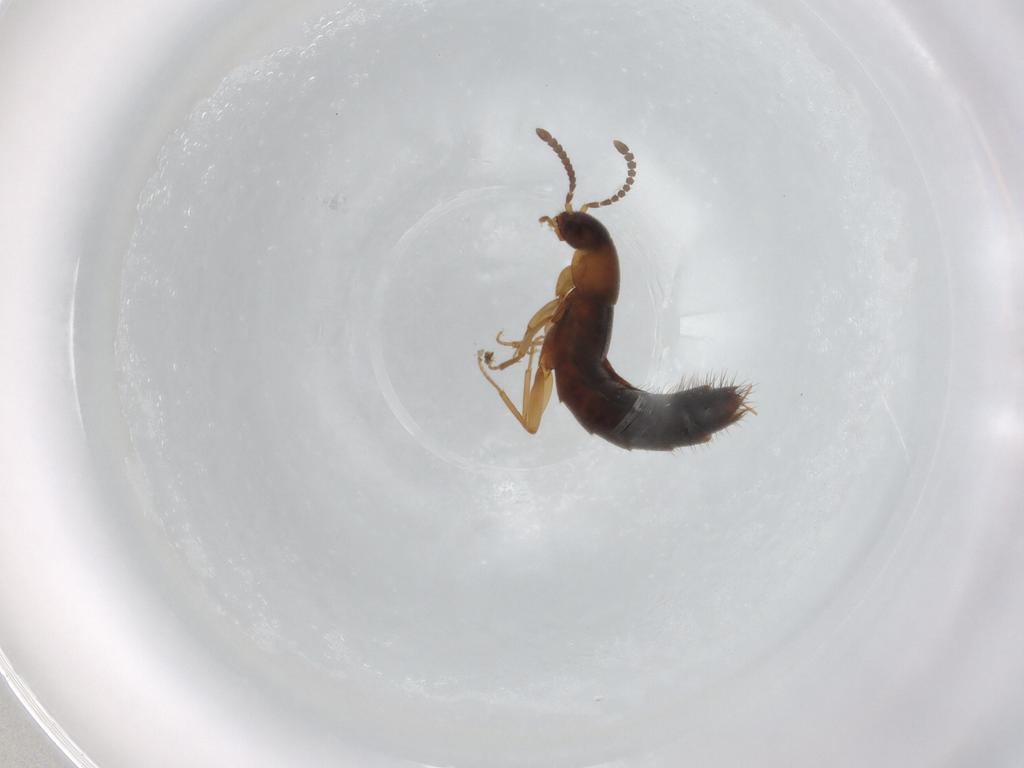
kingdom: Animalia
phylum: Arthropoda
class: Insecta
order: Coleoptera
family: Staphylinidae
